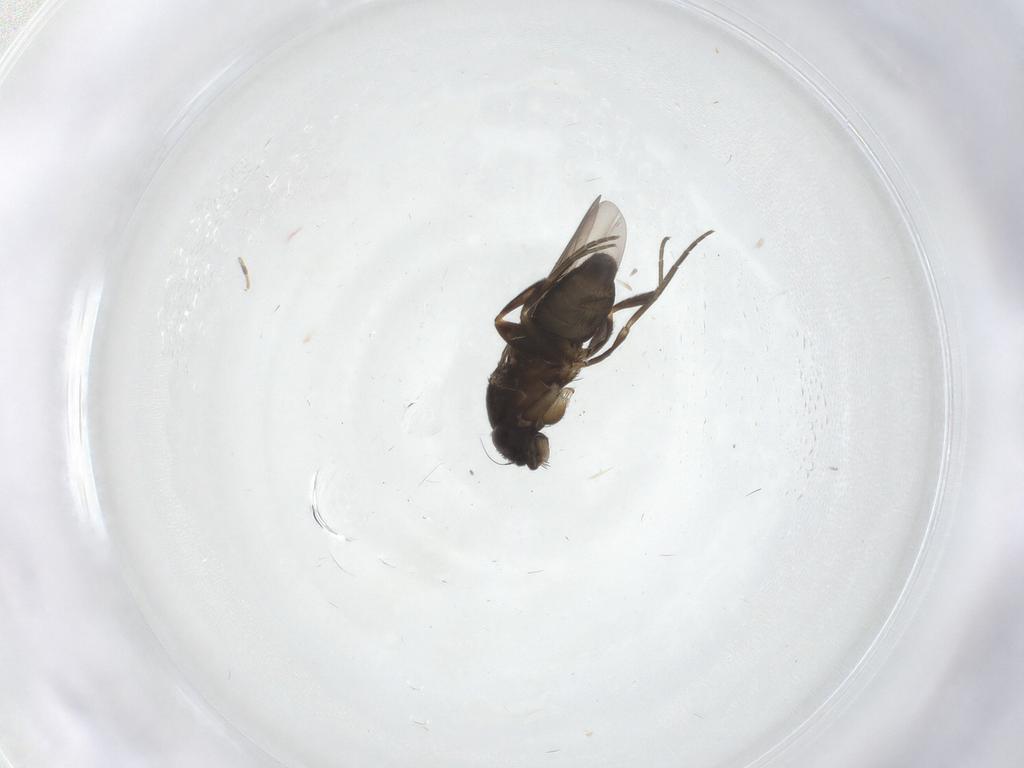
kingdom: Animalia
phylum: Arthropoda
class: Insecta
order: Diptera
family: Phoridae
